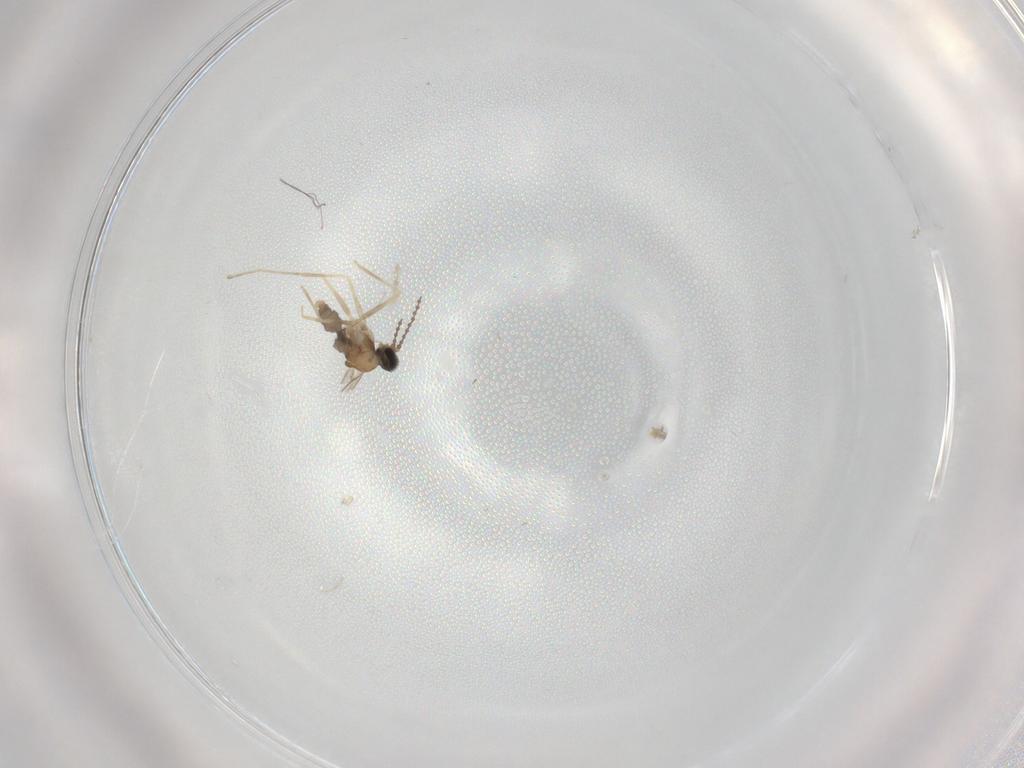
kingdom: Animalia
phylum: Arthropoda
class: Insecta
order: Diptera
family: Cecidomyiidae
